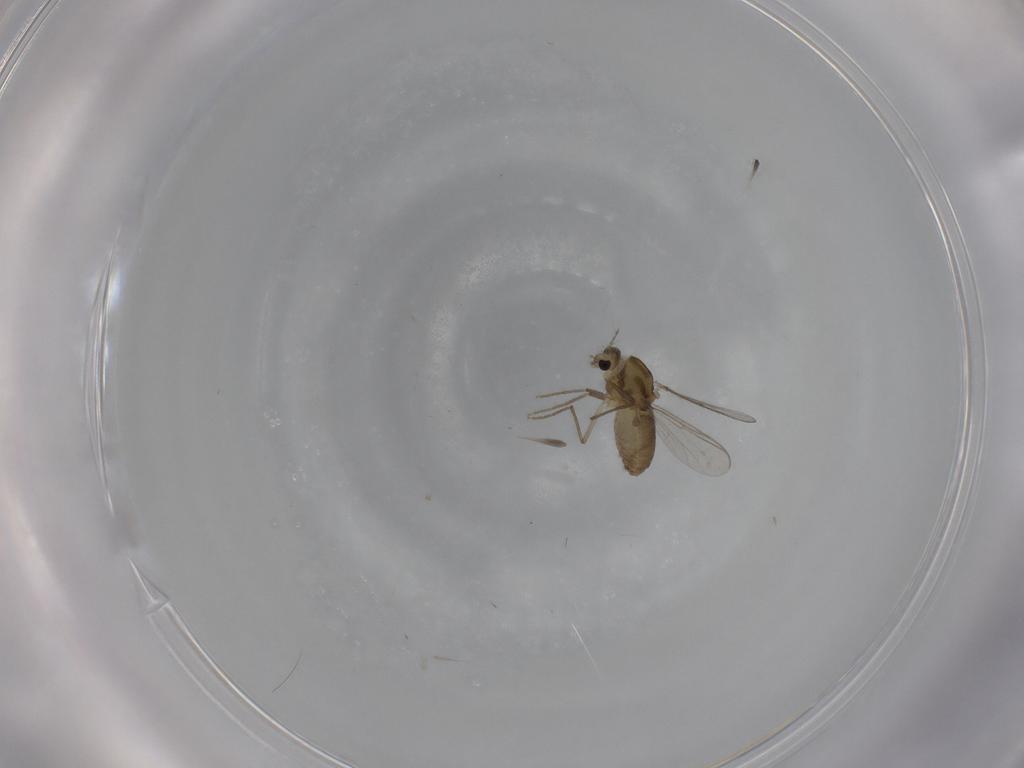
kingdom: Animalia
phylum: Arthropoda
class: Insecta
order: Diptera
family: Chironomidae
